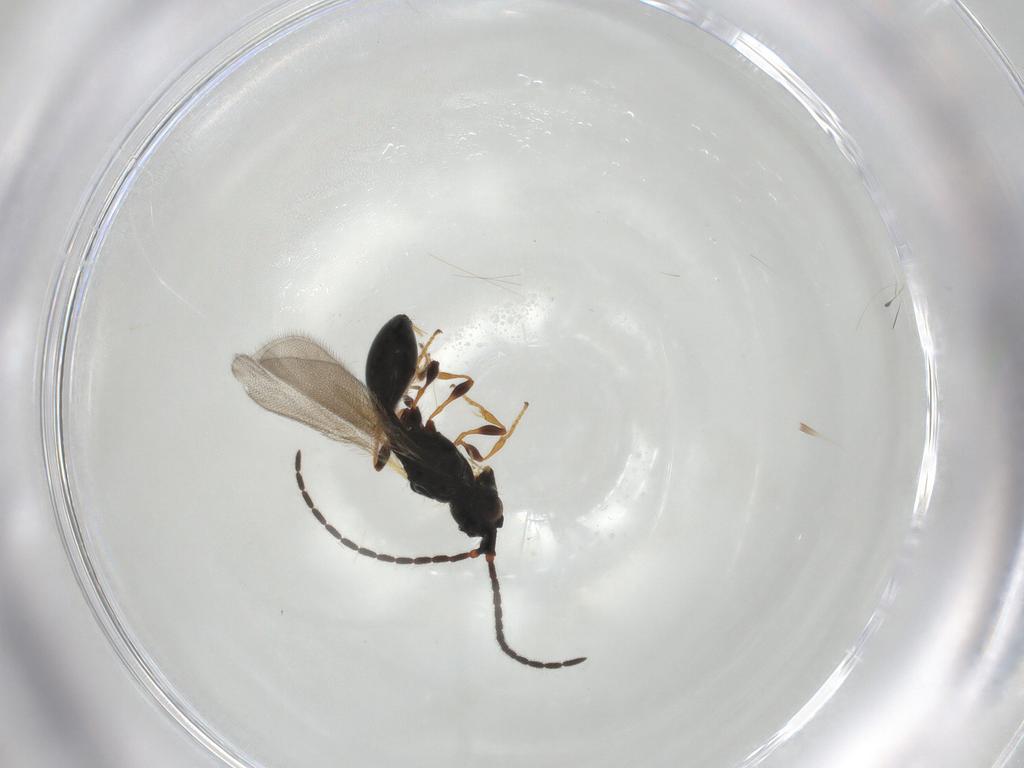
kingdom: Animalia
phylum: Arthropoda
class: Insecta
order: Hymenoptera
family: Diapriidae
